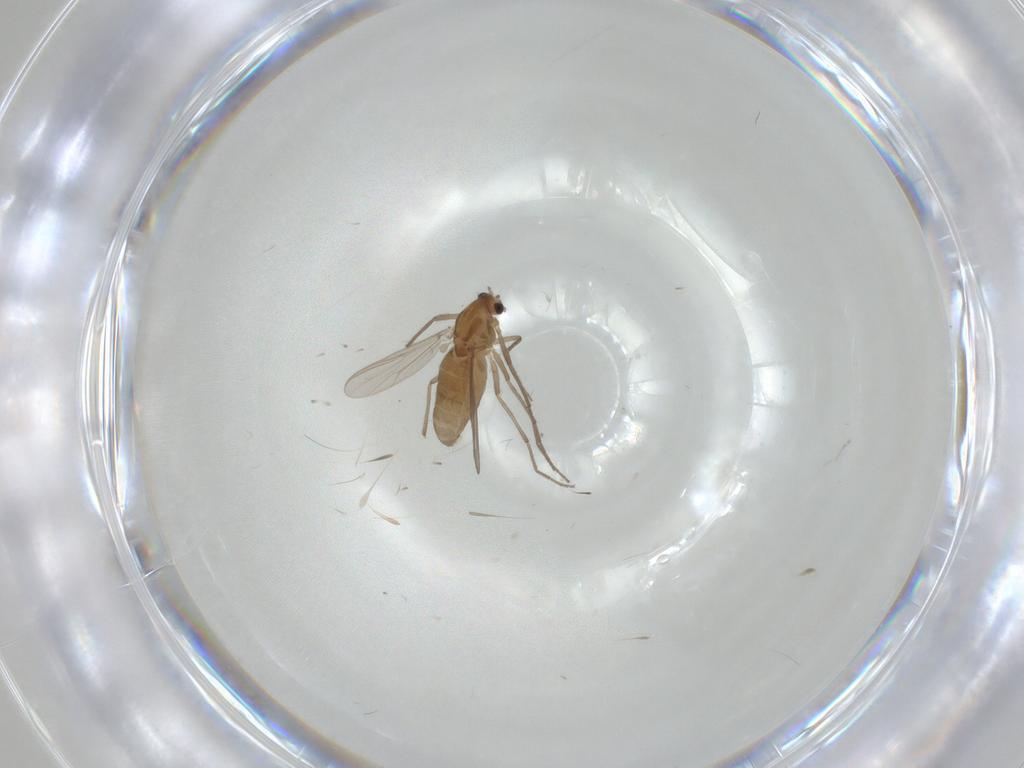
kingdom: Animalia
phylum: Arthropoda
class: Insecta
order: Diptera
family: Chironomidae
